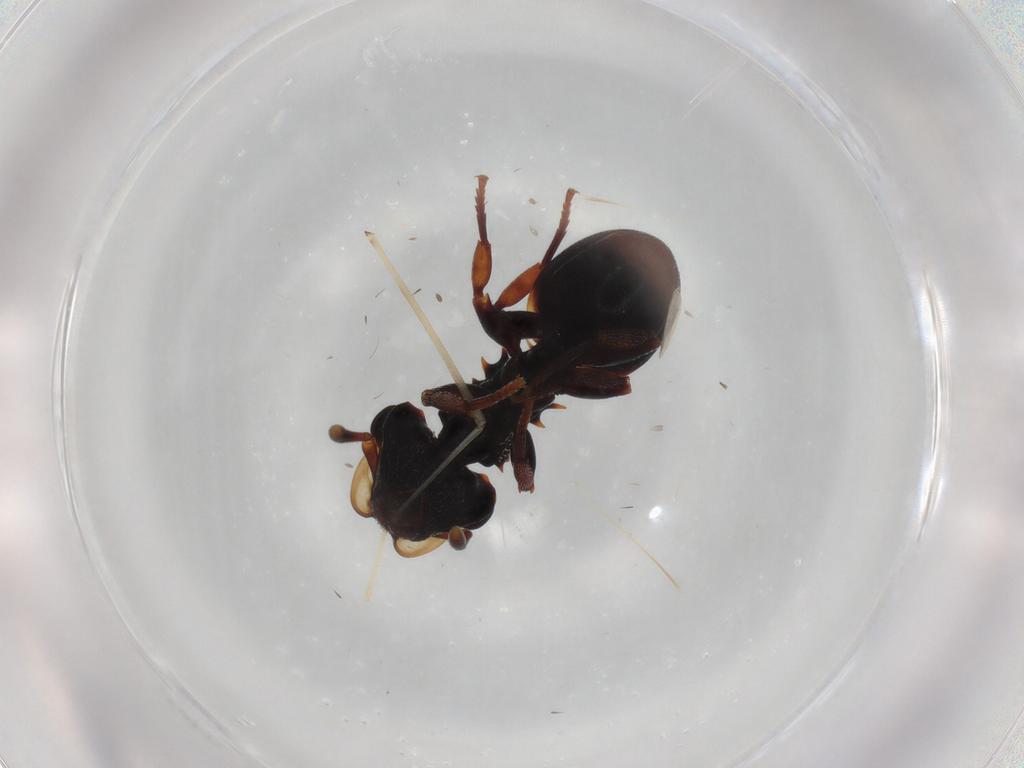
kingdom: Animalia
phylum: Arthropoda
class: Insecta
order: Hymenoptera
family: Formicidae
